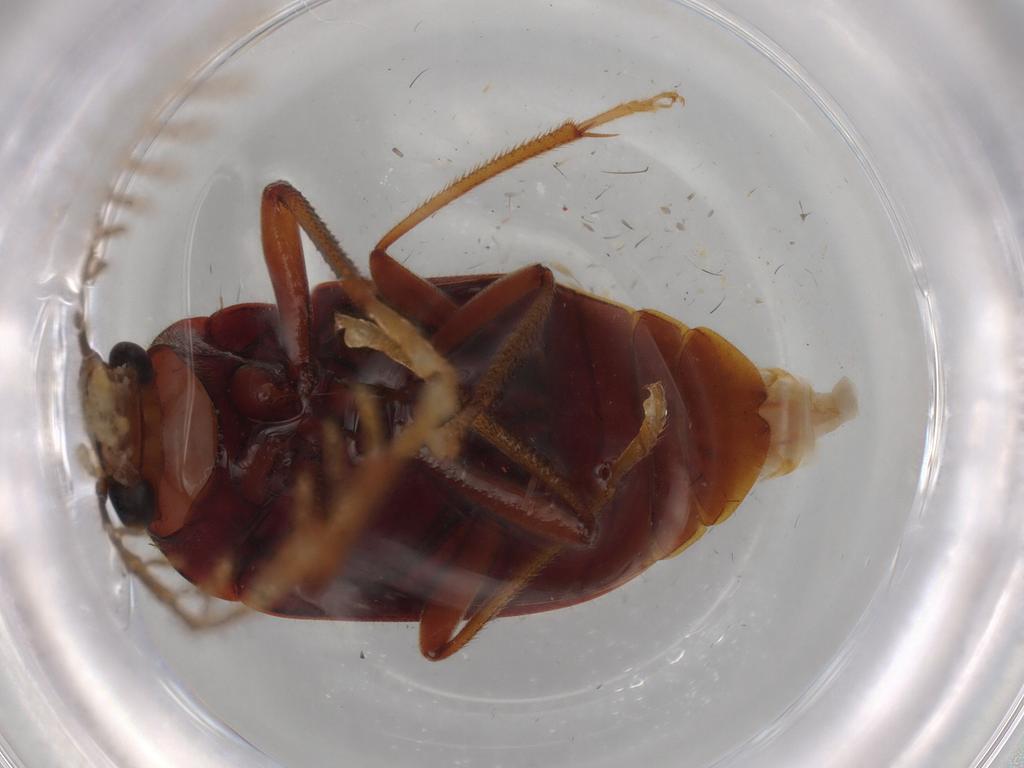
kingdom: Animalia
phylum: Arthropoda
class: Insecta
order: Coleoptera
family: Ptilodactylidae
